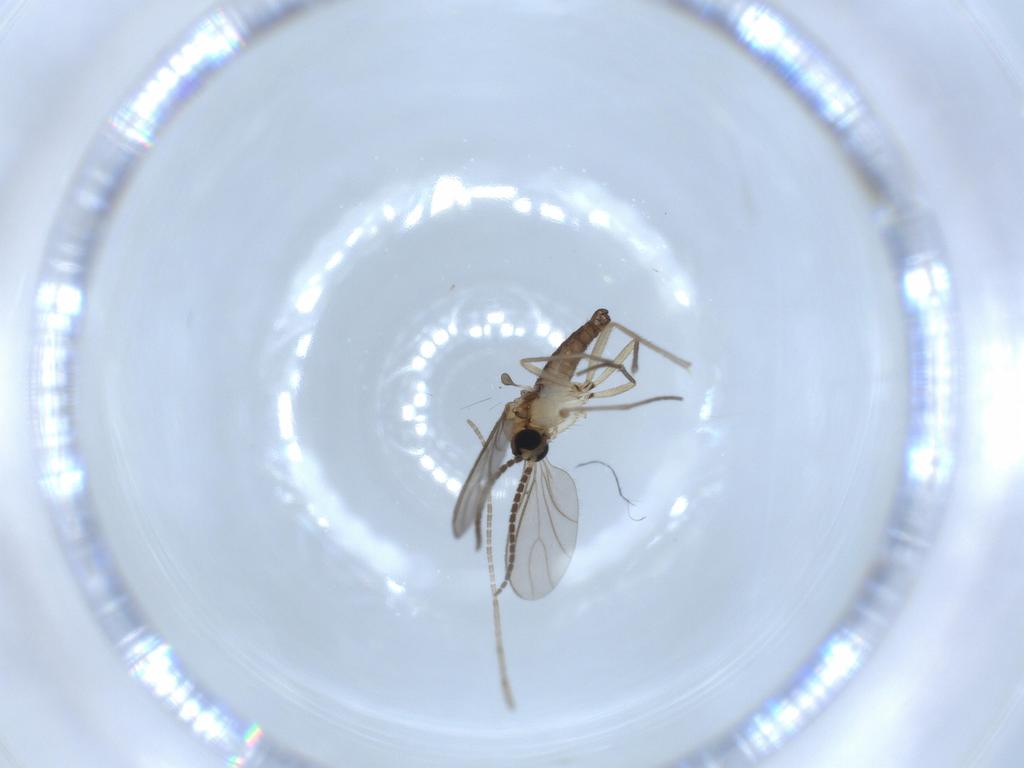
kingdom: Animalia
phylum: Arthropoda
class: Insecta
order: Diptera
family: Sciaridae
